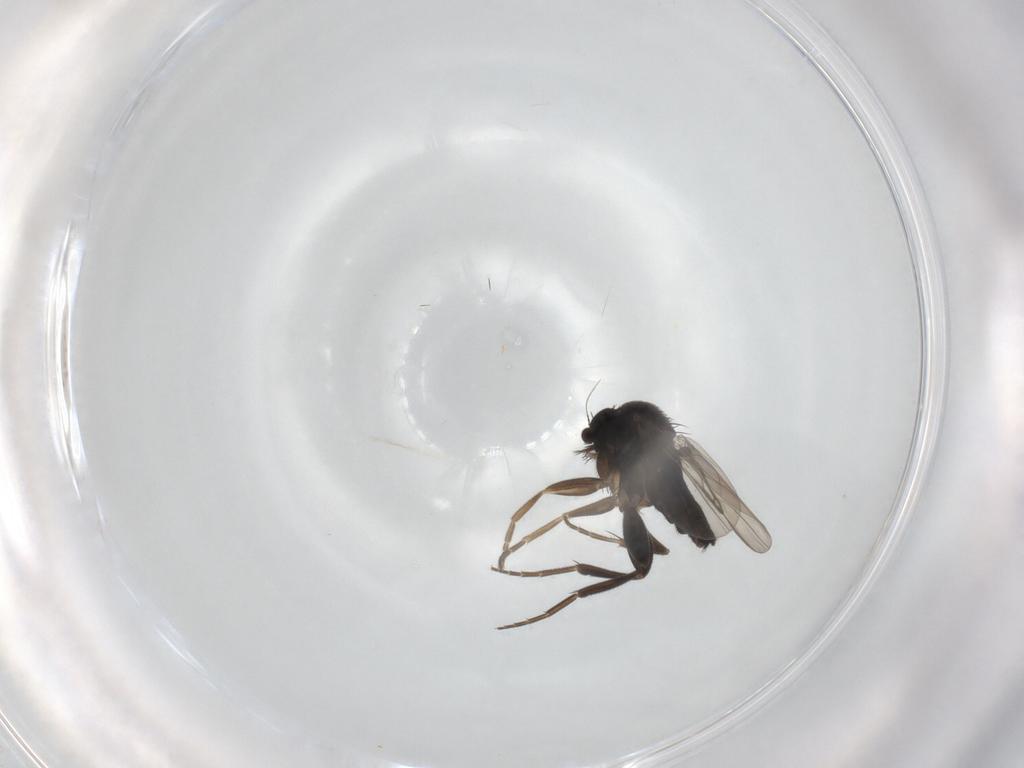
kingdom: Animalia
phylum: Arthropoda
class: Insecta
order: Diptera
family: Phoridae
